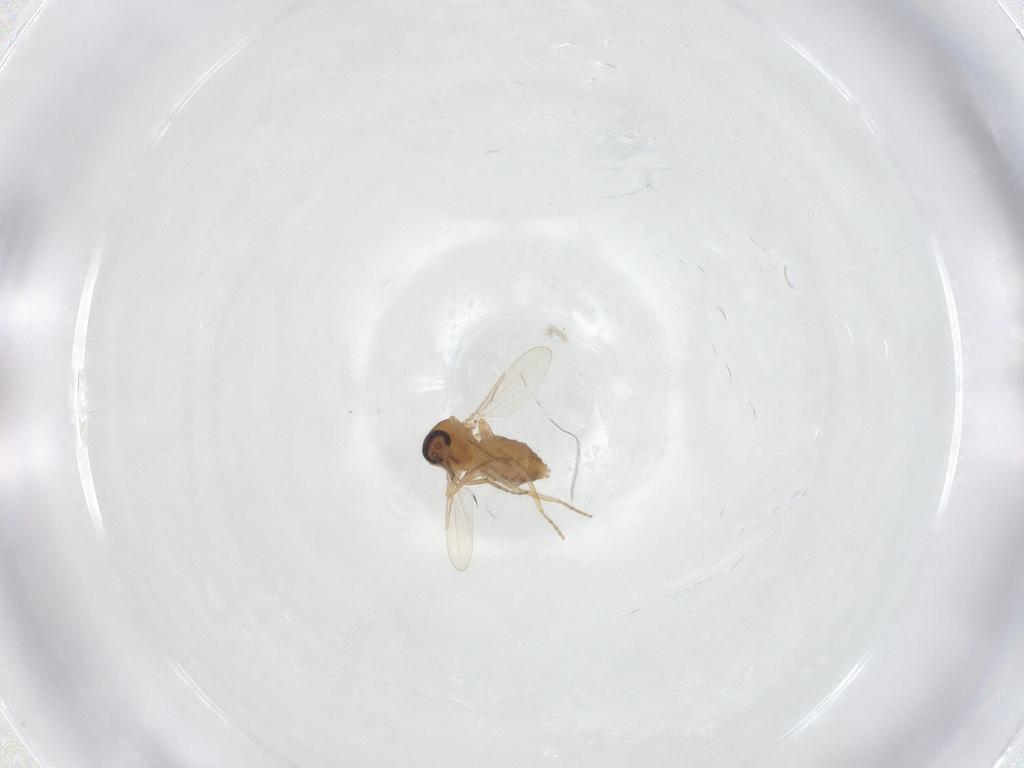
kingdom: Animalia
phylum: Arthropoda
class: Insecta
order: Diptera
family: Ceratopogonidae
